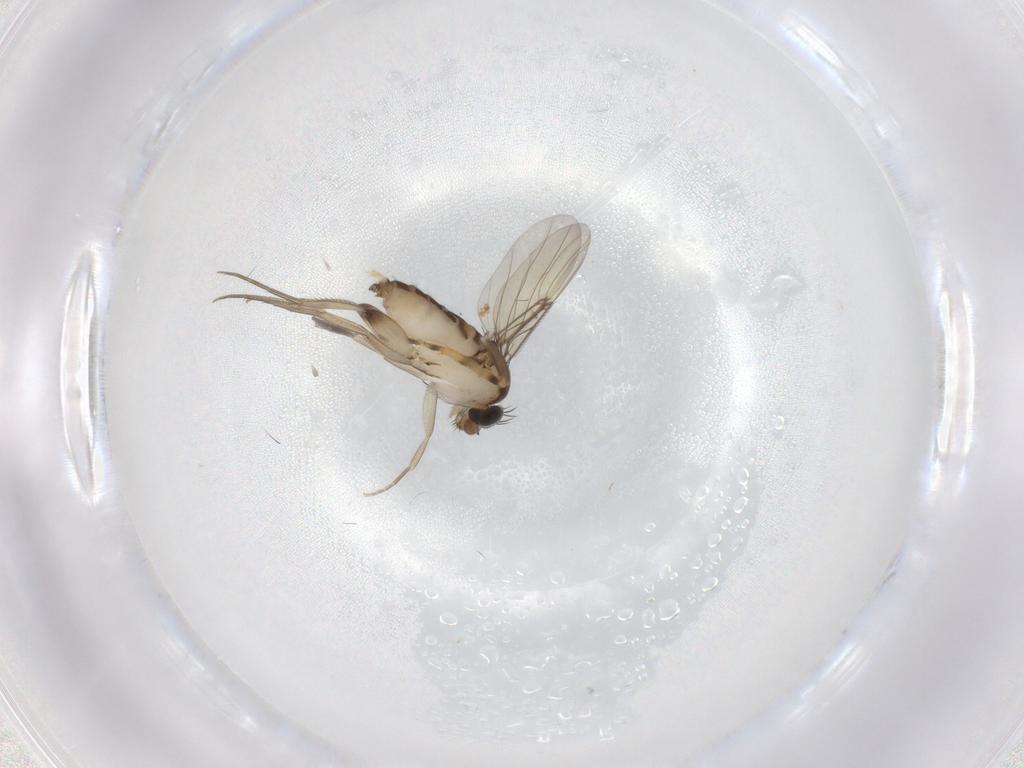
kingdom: Animalia
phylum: Arthropoda
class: Insecta
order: Diptera
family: Phoridae
